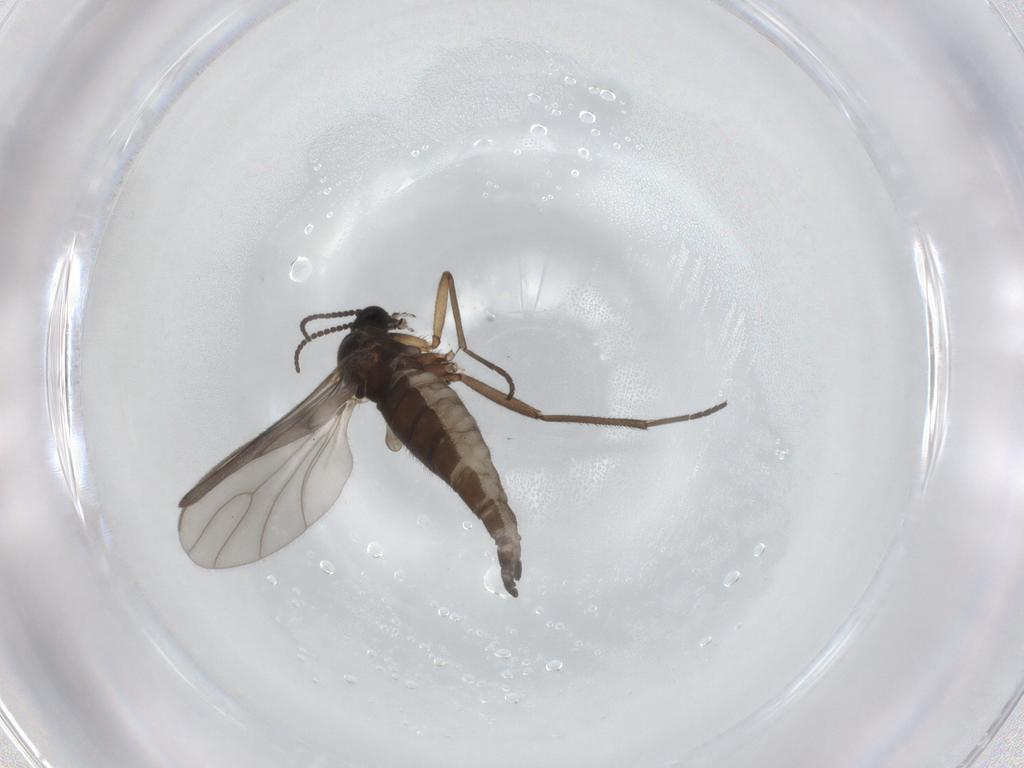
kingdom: Animalia
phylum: Arthropoda
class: Insecta
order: Diptera
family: Sciaridae
